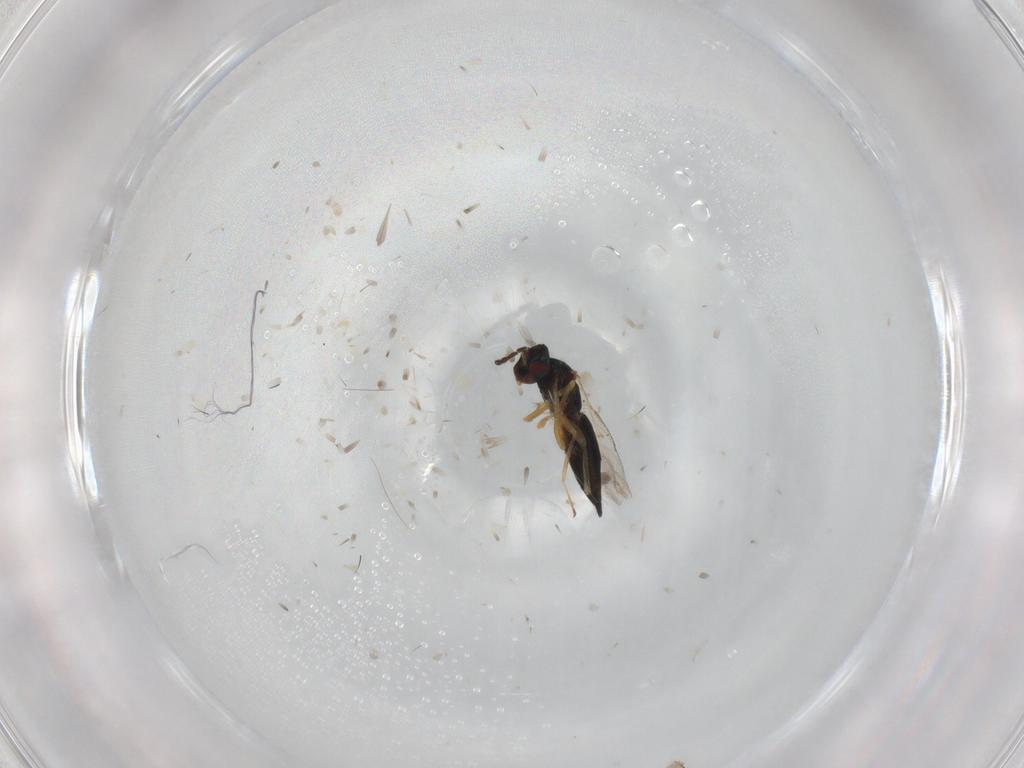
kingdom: Animalia
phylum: Arthropoda
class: Insecta
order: Hymenoptera
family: Eulophidae
